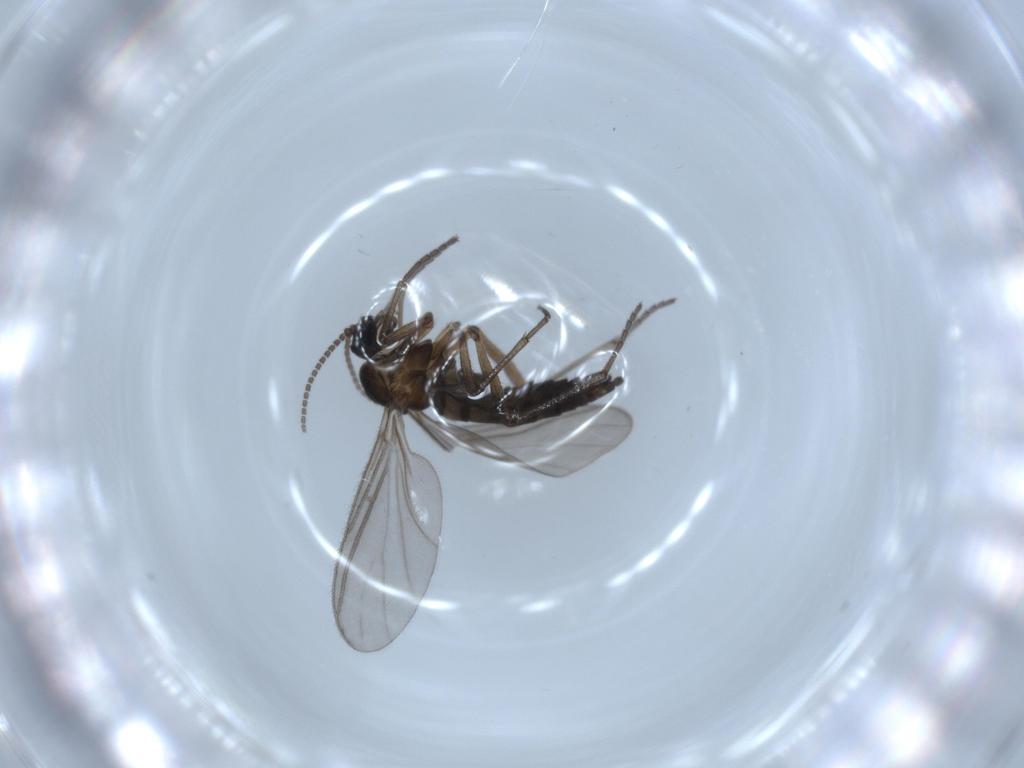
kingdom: Animalia
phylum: Arthropoda
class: Insecta
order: Diptera
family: Sciaridae
